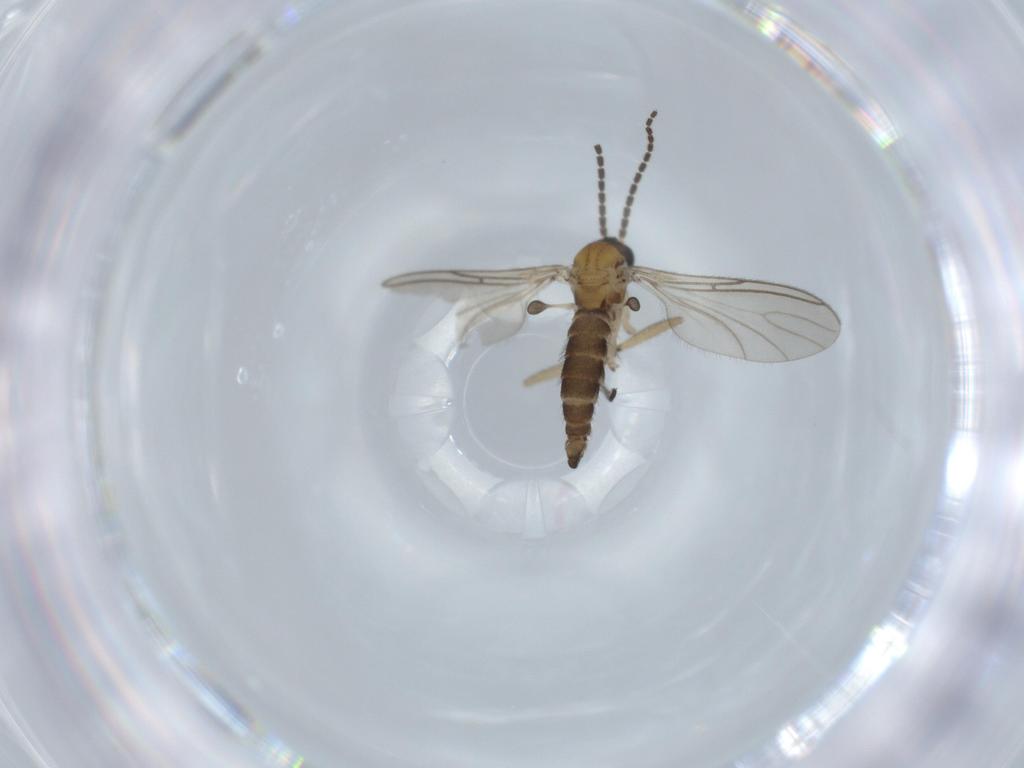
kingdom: Animalia
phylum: Arthropoda
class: Insecta
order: Diptera
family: Sciaridae
